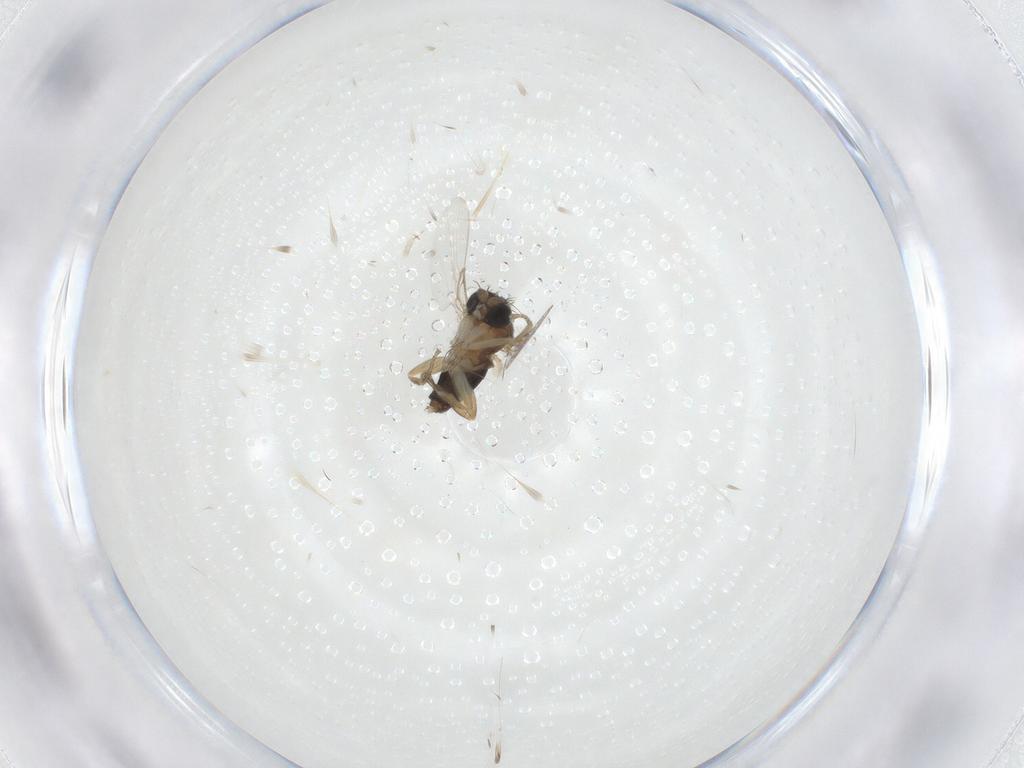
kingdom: Animalia
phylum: Arthropoda
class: Insecta
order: Diptera
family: Phoridae
